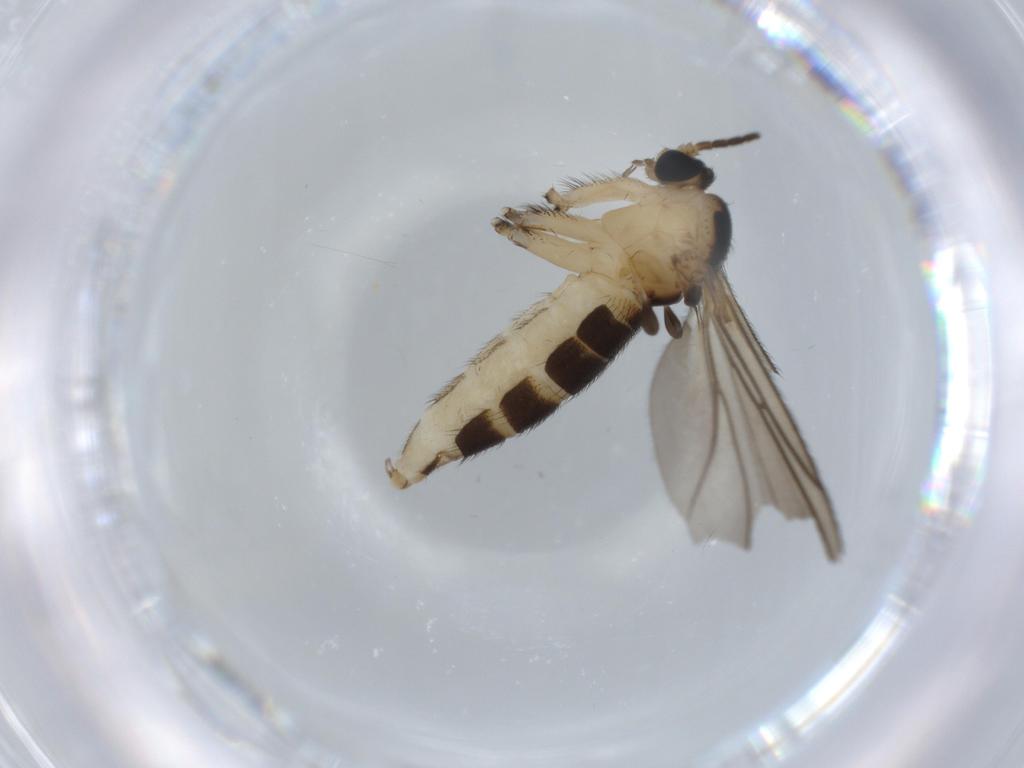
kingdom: Animalia
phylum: Arthropoda
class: Insecta
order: Diptera
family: Sciaridae
